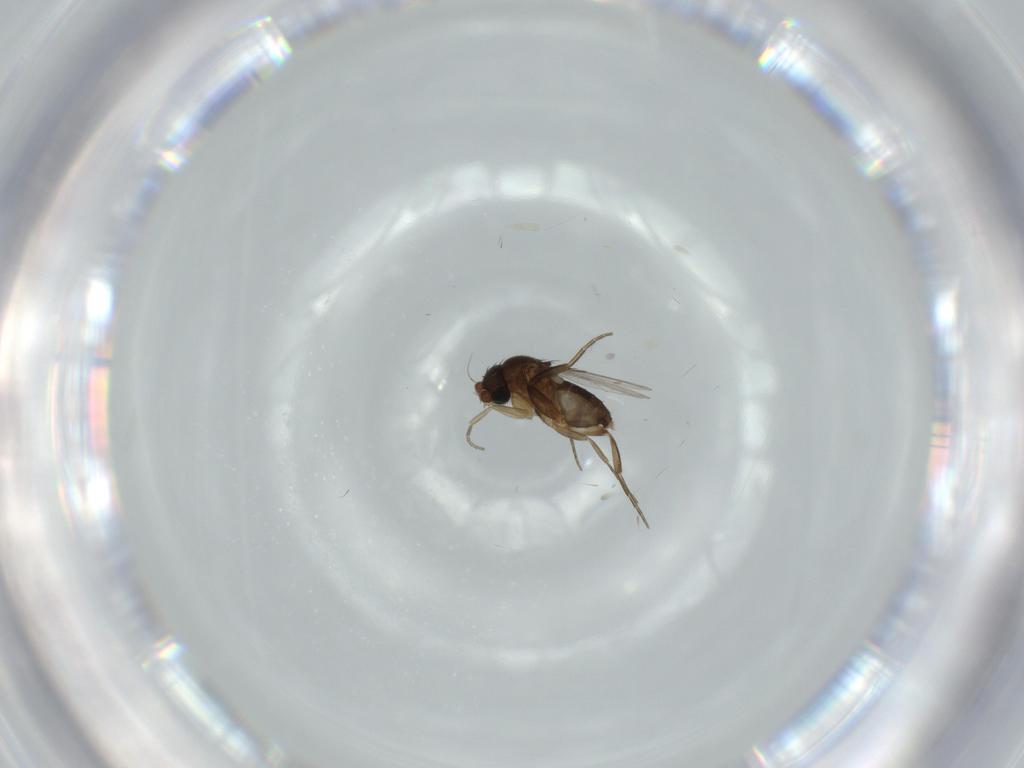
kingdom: Animalia
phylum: Arthropoda
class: Insecta
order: Diptera
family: Phoridae
